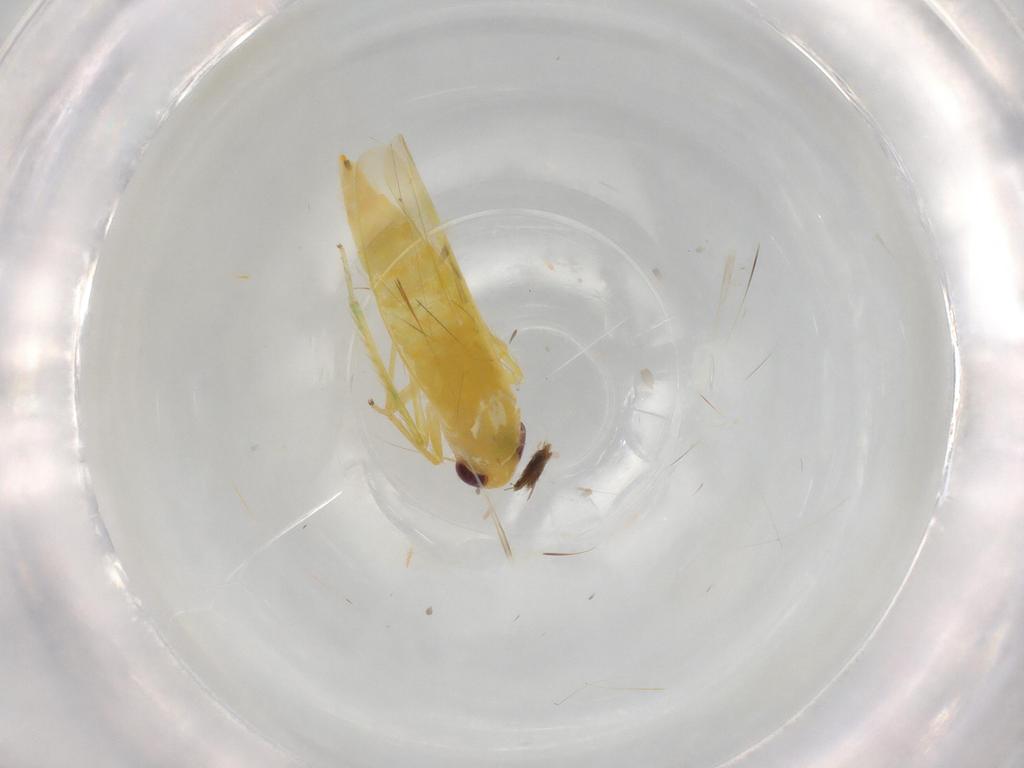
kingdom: Animalia
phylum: Arthropoda
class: Insecta
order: Hemiptera
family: Cicadellidae
